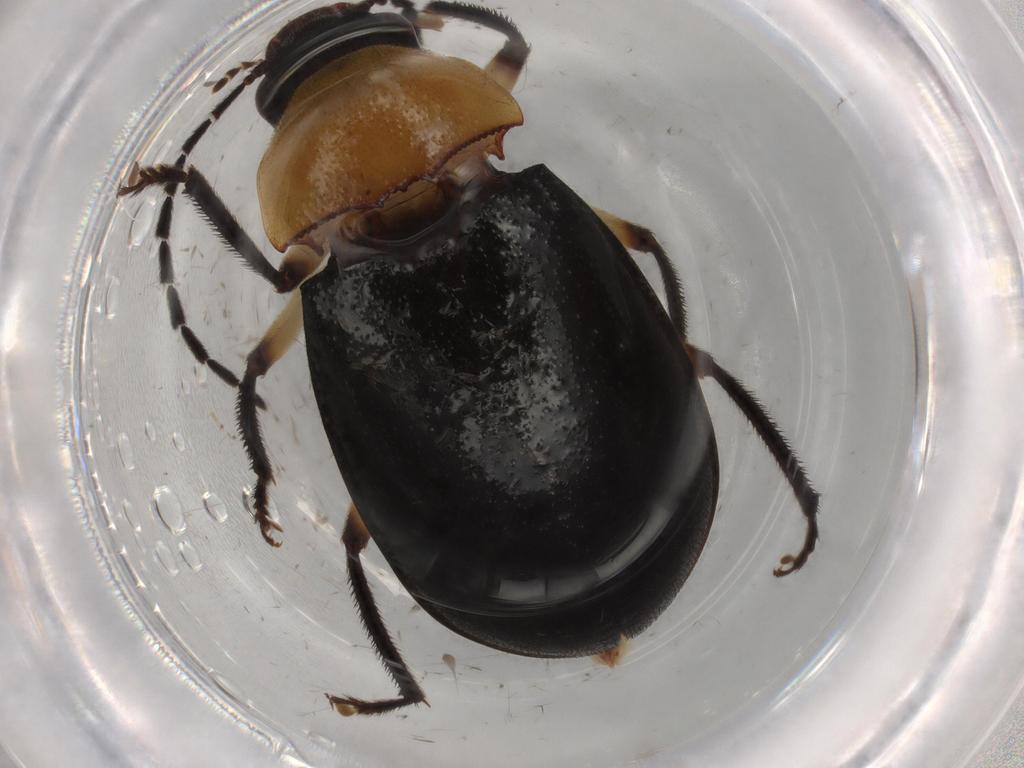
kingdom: Animalia
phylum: Arthropoda
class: Insecta
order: Coleoptera
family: Ptilodactylidae
